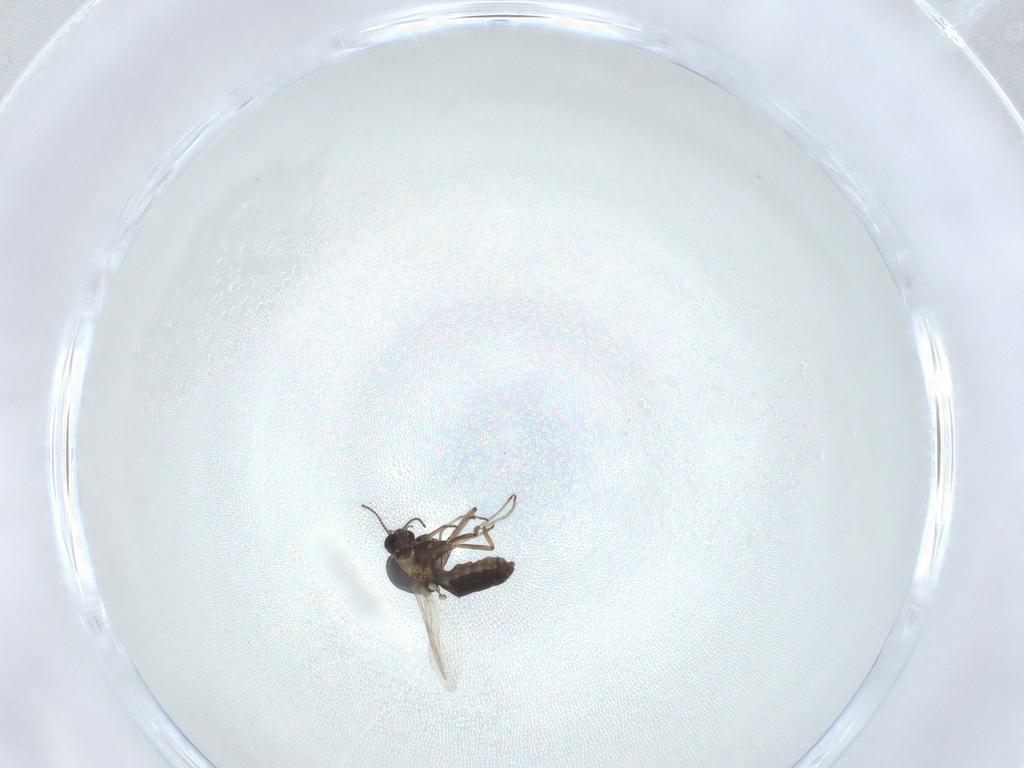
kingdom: Animalia
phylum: Arthropoda
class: Insecta
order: Diptera
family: Ceratopogonidae
